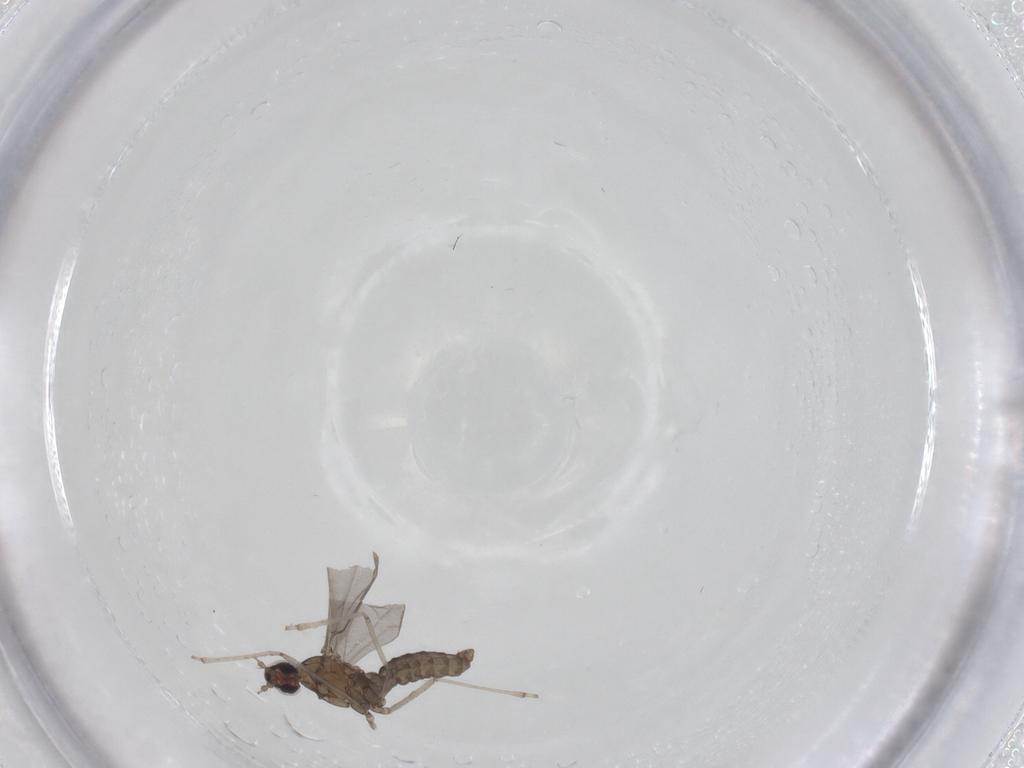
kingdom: Animalia
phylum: Arthropoda
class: Insecta
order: Diptera
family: Cecidomyiidae
